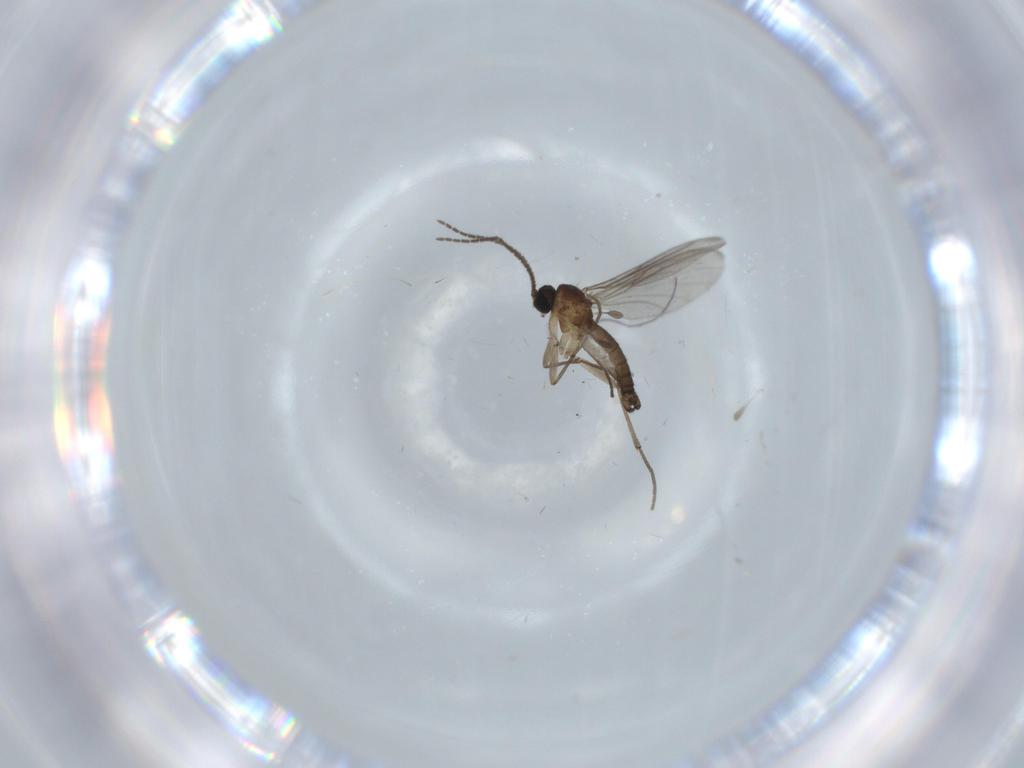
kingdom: Animalia
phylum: Arthropoda
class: Insecta
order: Diptera
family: Sciaridae
